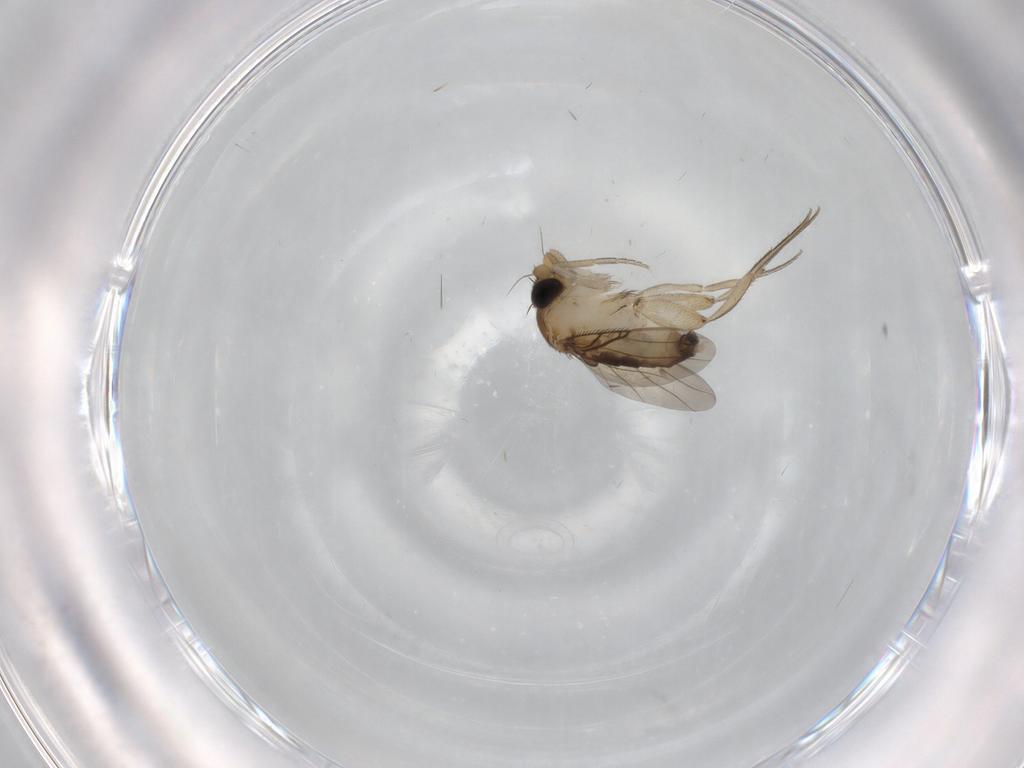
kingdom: Animalia
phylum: Arthropoda
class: Insecta
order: Diptera
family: Phoridae
